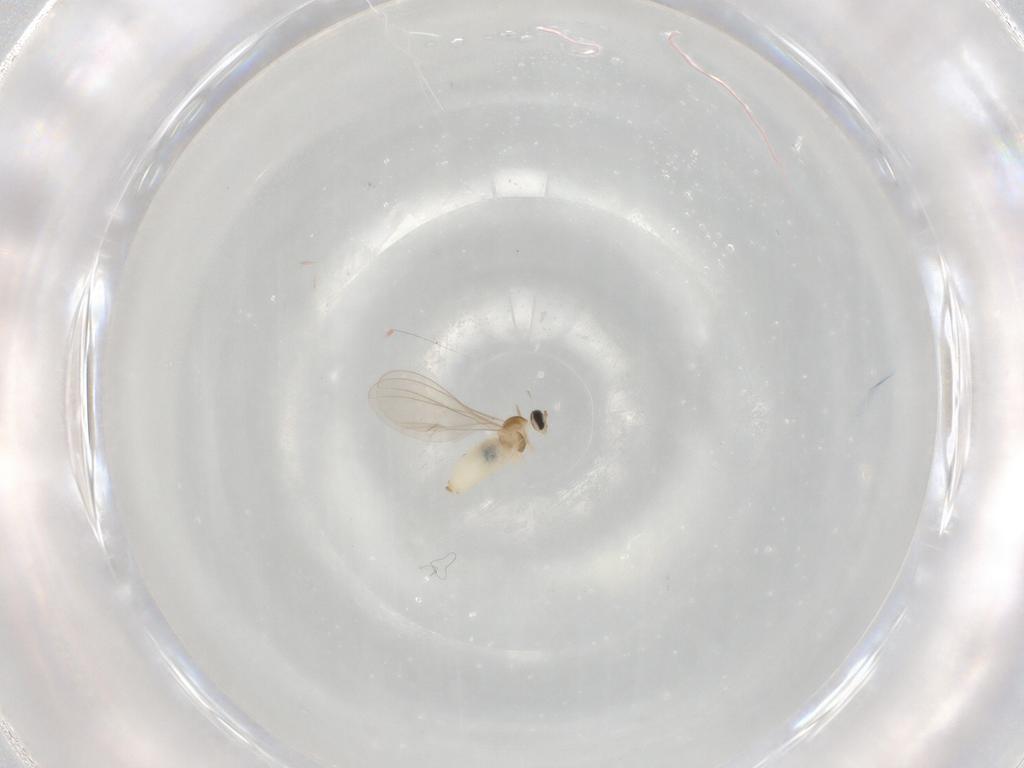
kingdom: Animalia
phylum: Arthropoda
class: Insecta
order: Diptera
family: Cecidomyiidae
